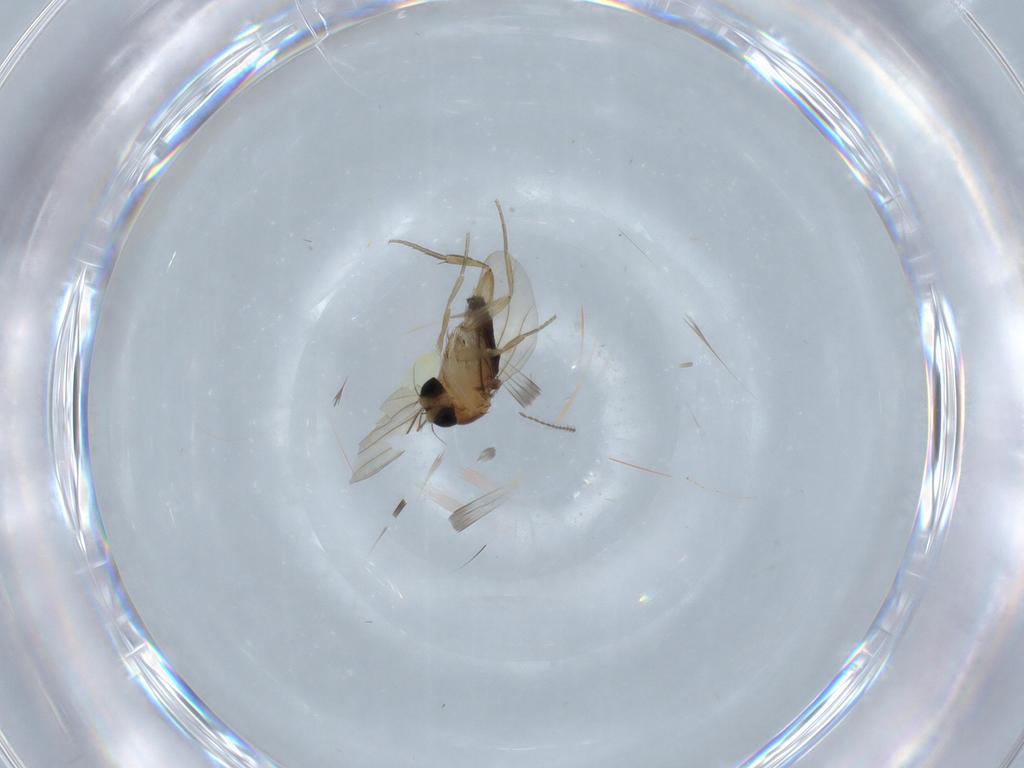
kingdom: Animalia
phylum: Arthropoda
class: Insecta
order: Diptera
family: Phoridae
